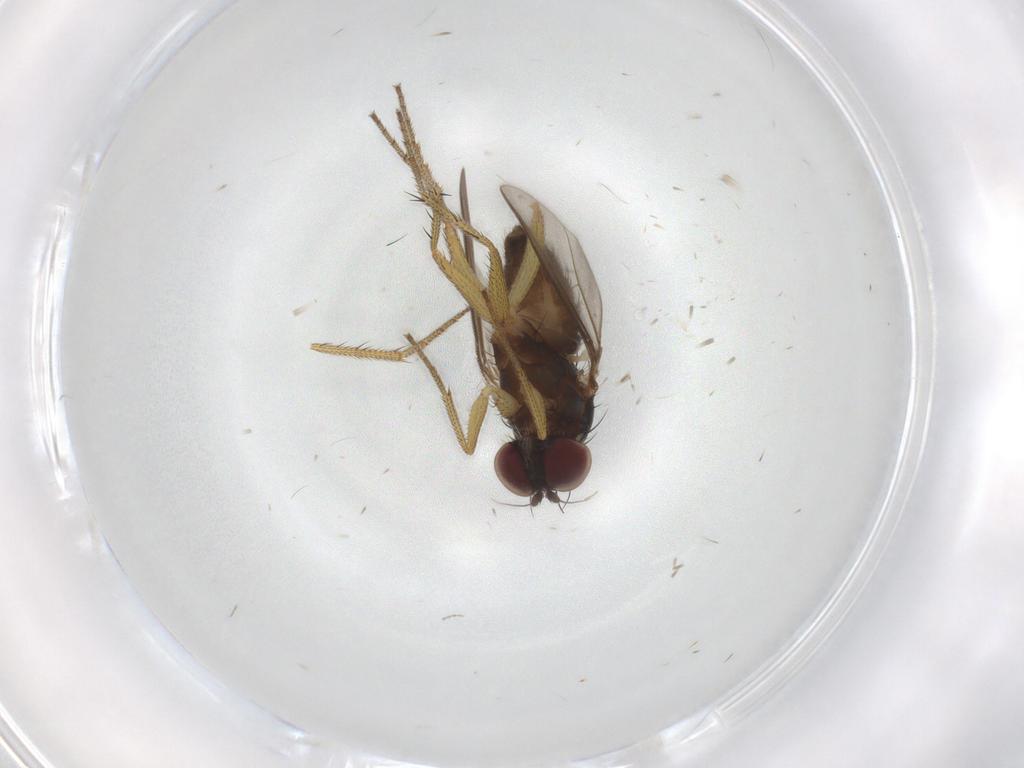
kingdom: Animalia
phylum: Arthropoda
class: Insecta
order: Diptera
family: Dolichopodidae
